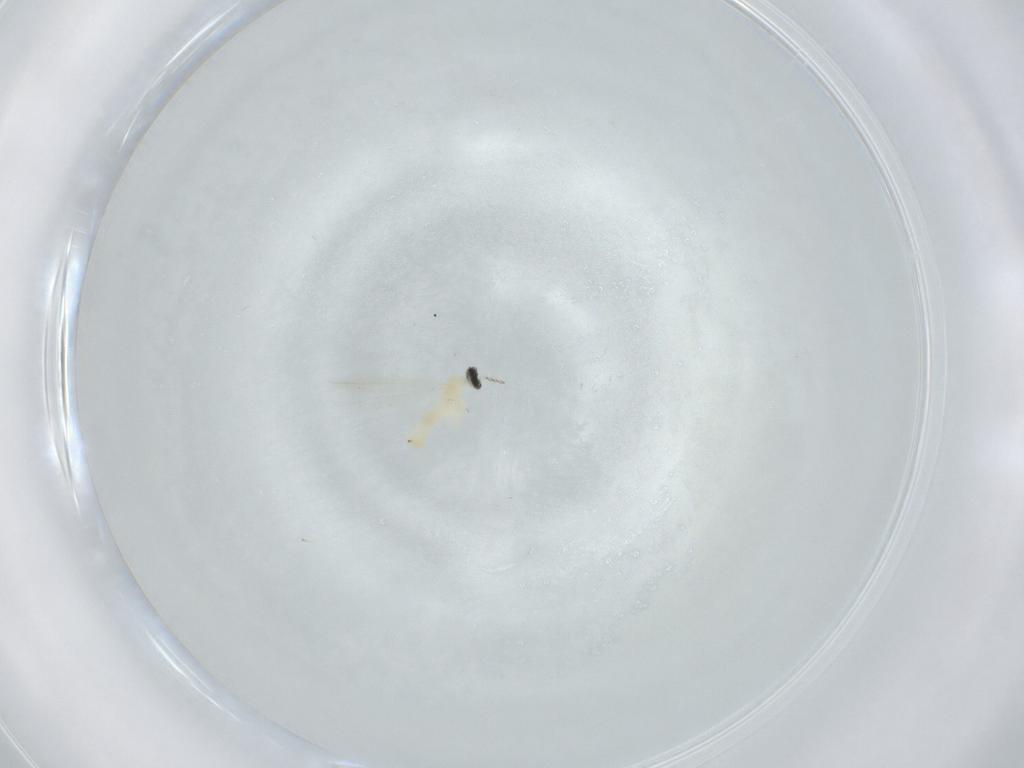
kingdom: Animalia
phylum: Arthropoda
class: Insecta
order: Diptera
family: Cecidomyiidae
